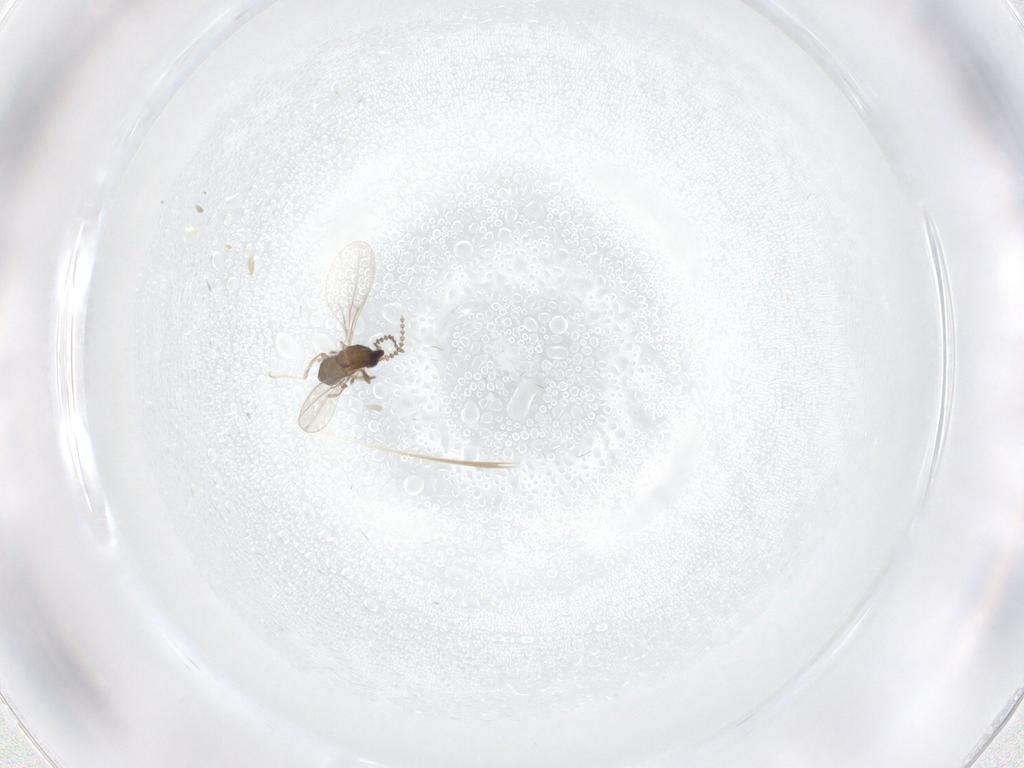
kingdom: Animalia
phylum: Arthropoda
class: Insecta
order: Diptera
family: Cecidomyiidae
